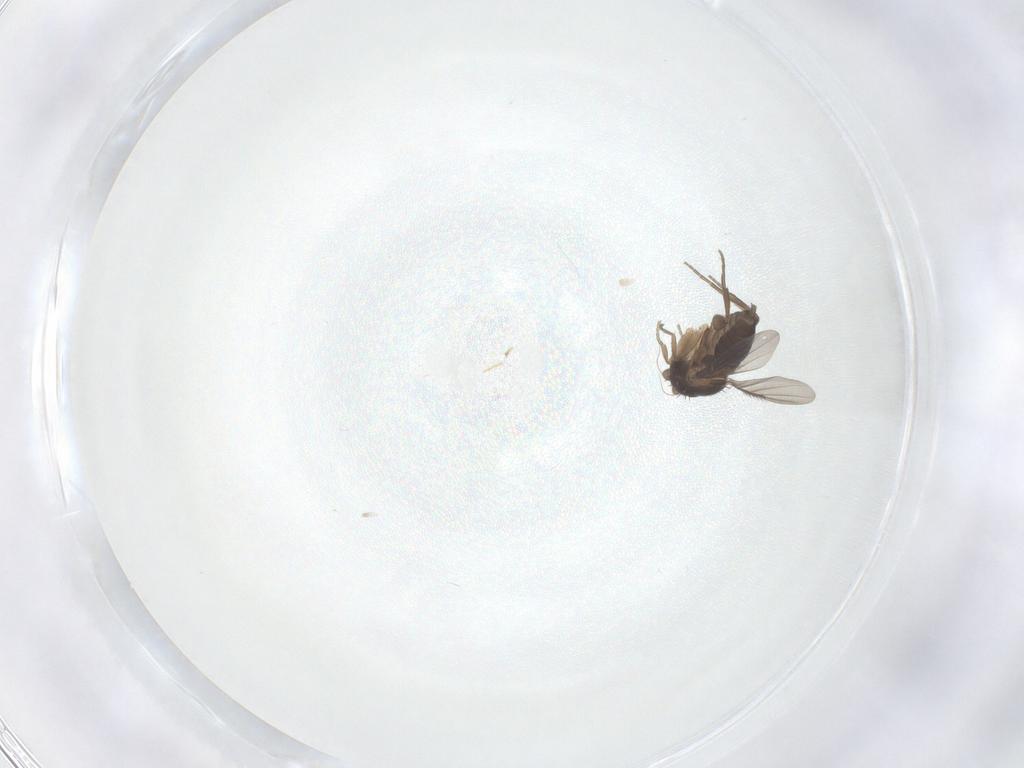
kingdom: Animalia
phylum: Arthropoda
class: Insecta
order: Diptera
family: Phoridae
